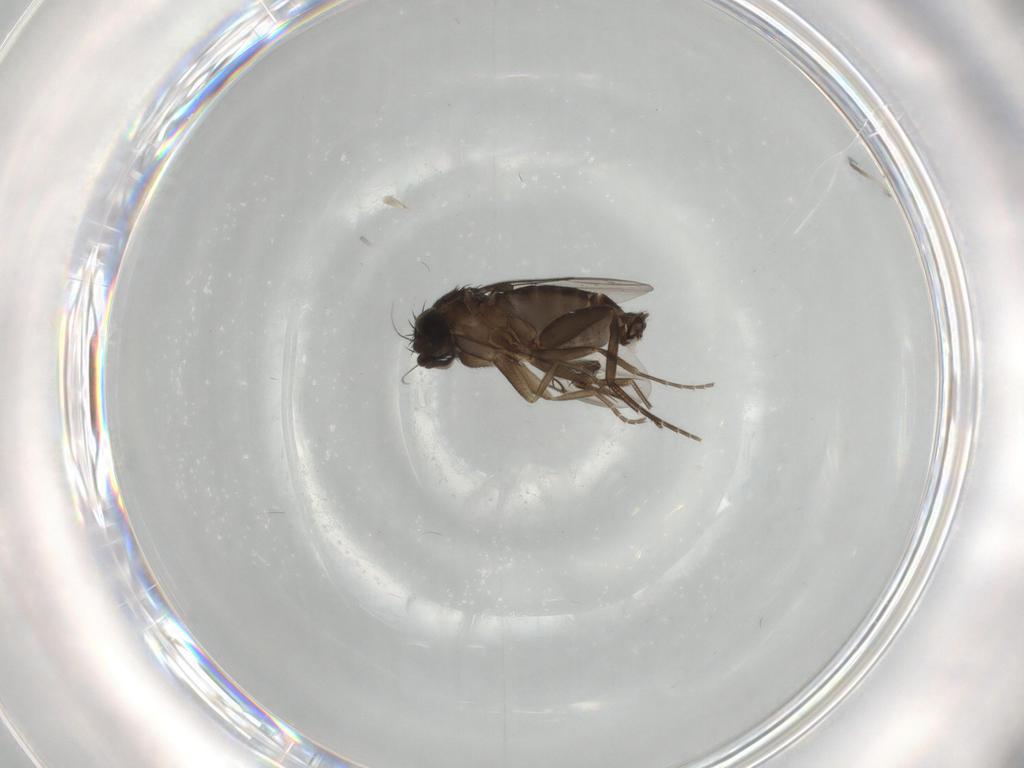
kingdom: Animalia
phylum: Arthropoda
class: Insecta
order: Diptera
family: Phoridae
